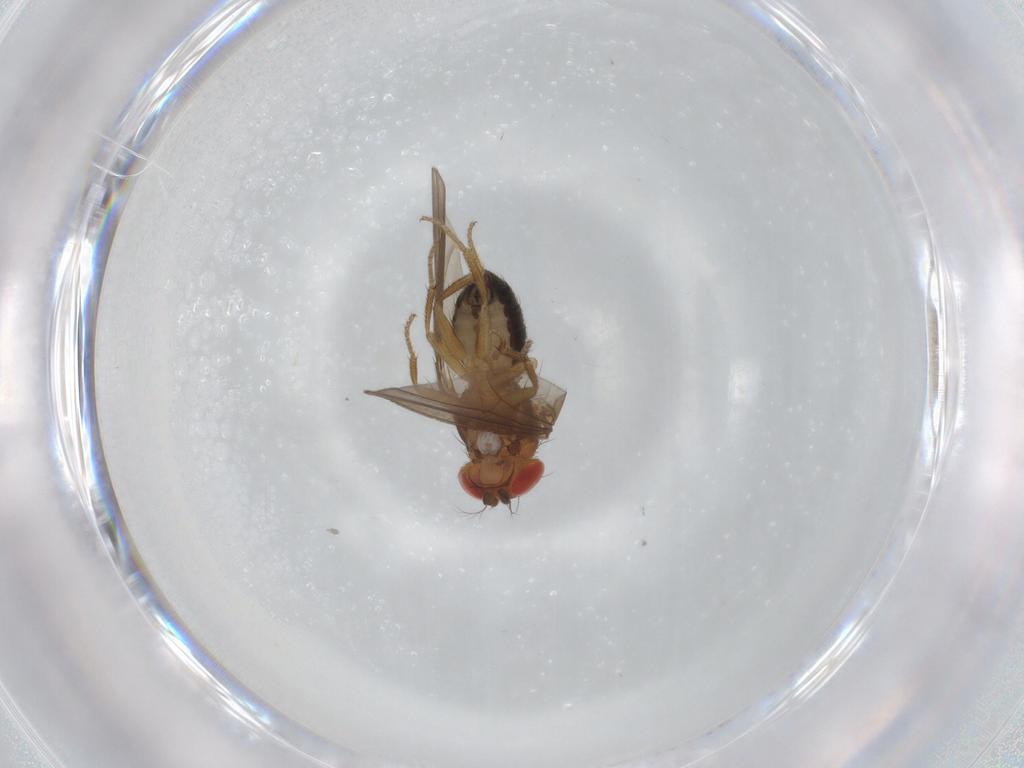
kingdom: Animalia
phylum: Arthropoda
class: Insecta
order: Diptera
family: Drosophilidae
